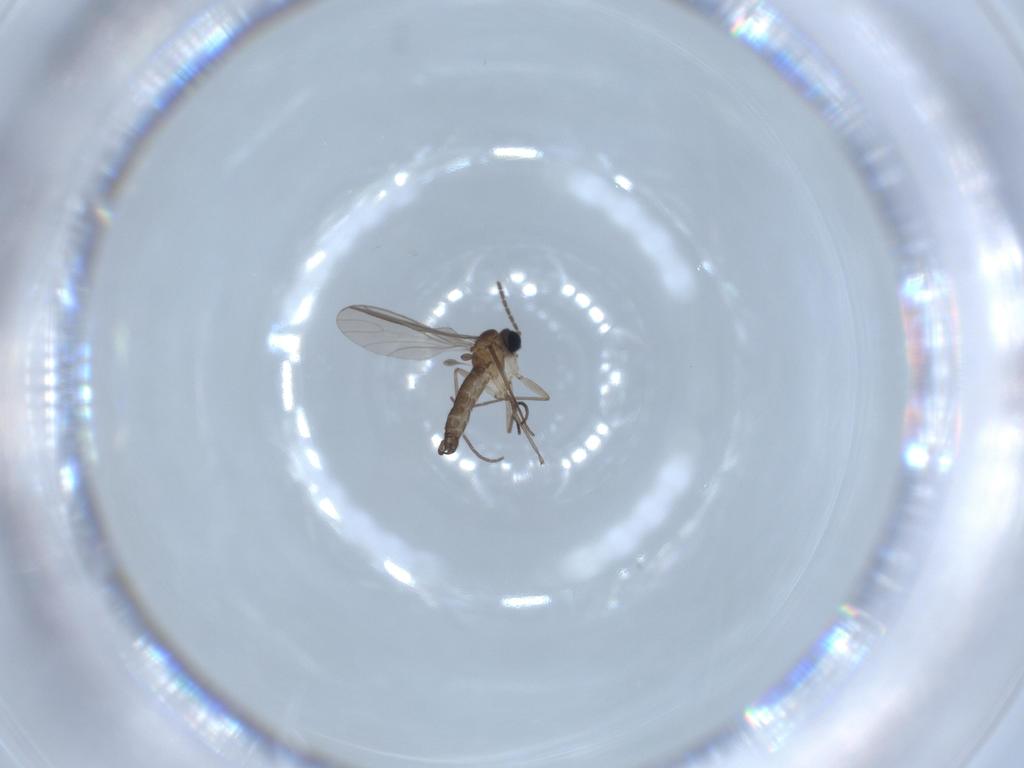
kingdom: Animalia
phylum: Arthropoda
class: Insecta
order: Diptera
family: Sciaridae
